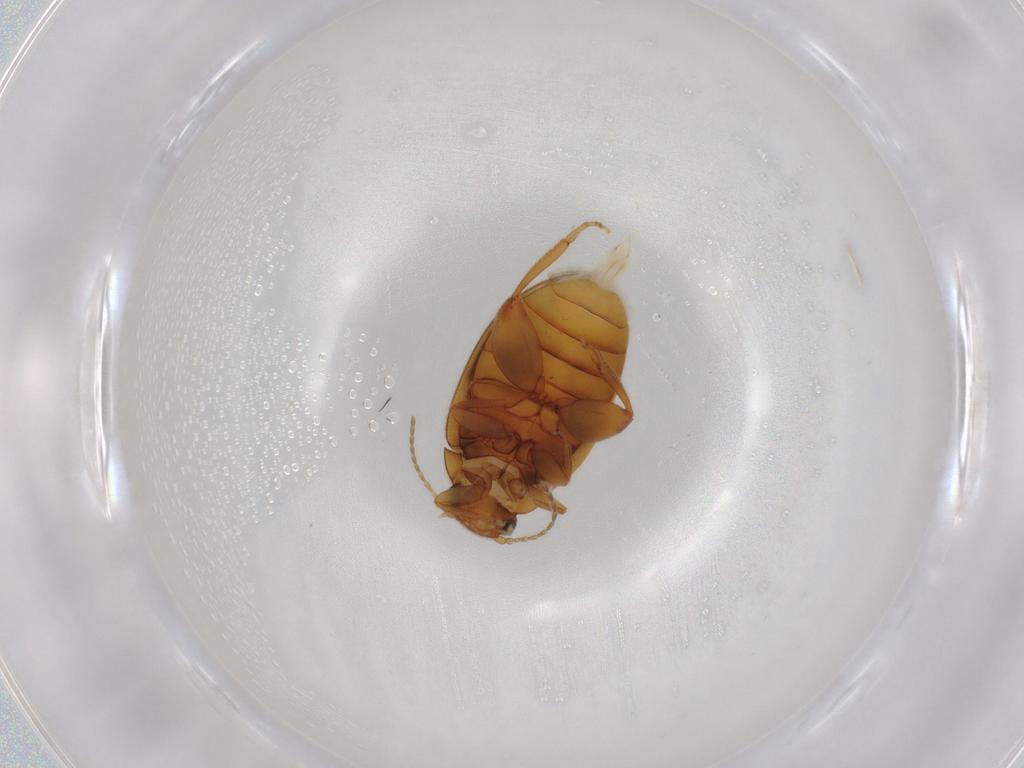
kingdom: Animalia
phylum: Arthropoda
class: Insecta
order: Coleoptera
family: Scirtidae
